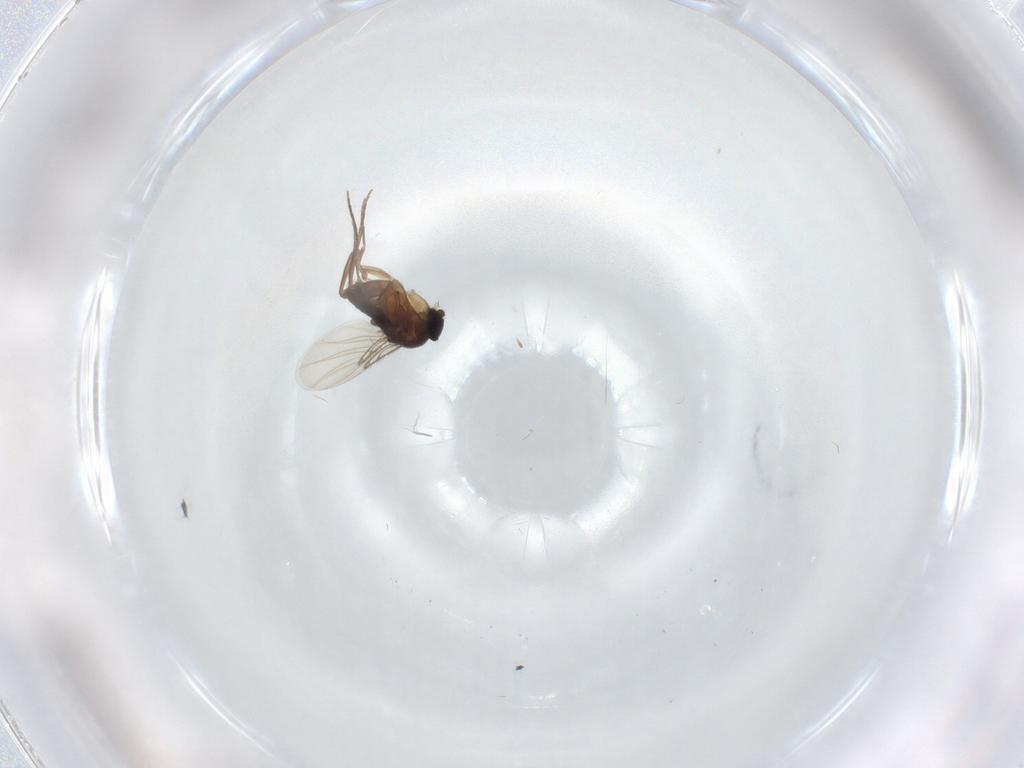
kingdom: Animalia
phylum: Arthropoda
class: Insecta
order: Diptera
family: Phoridae
